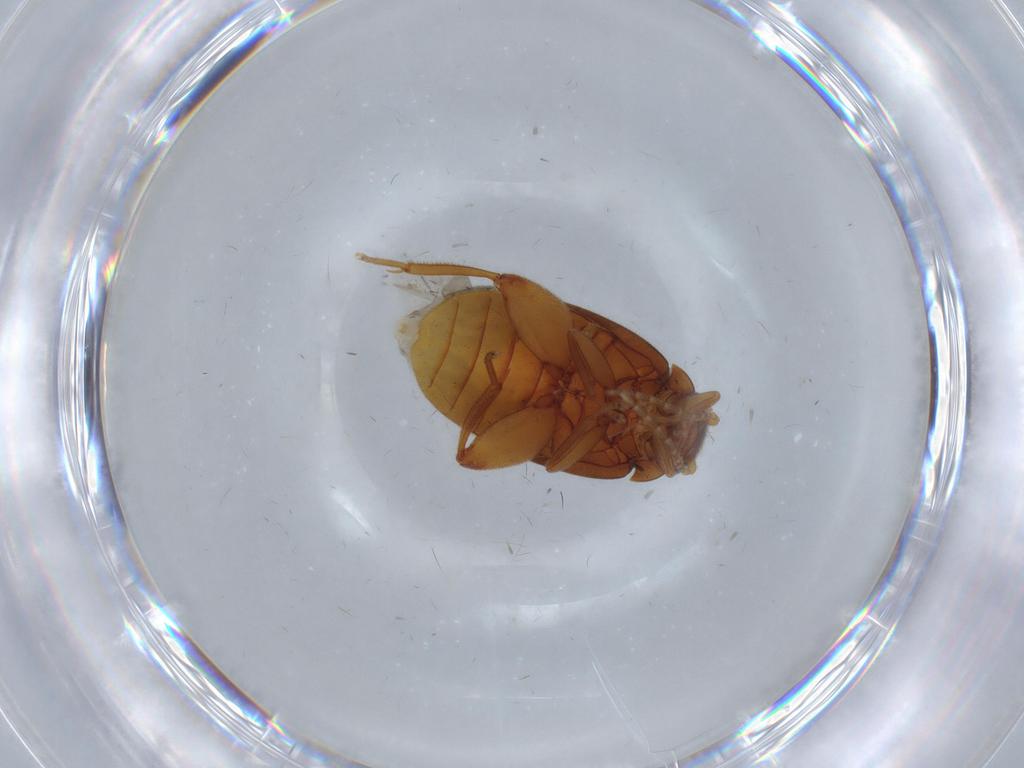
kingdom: Animalia
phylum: Arthropoda
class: Insecta
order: Coleoptera
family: Scirtidae
